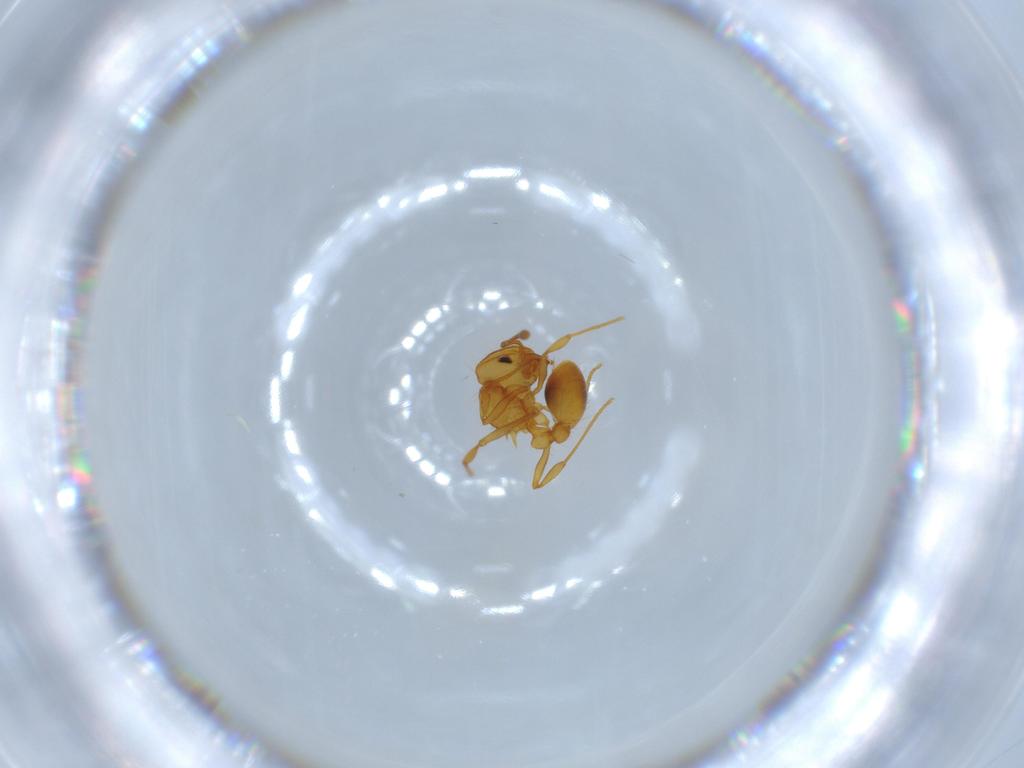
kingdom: Animalia
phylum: Arthropoda
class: Insecta
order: Hymenoptera
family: Formicidae
